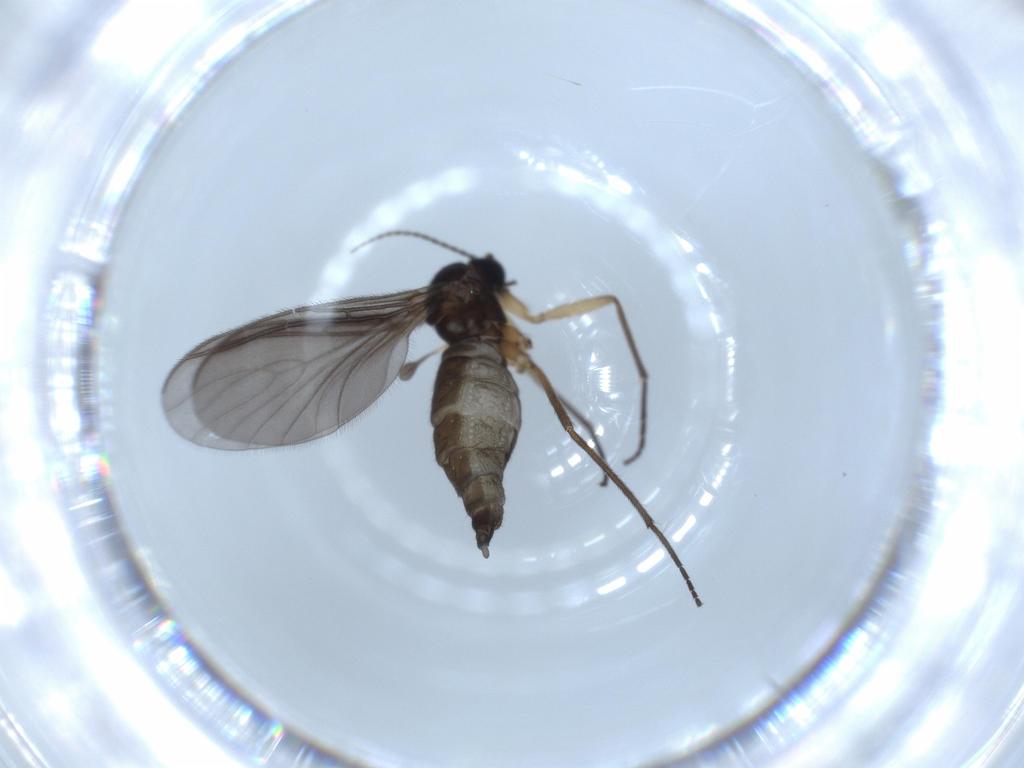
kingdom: Animalia
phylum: Arthropoda
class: Insecta
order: Diptera
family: Sciaridae
